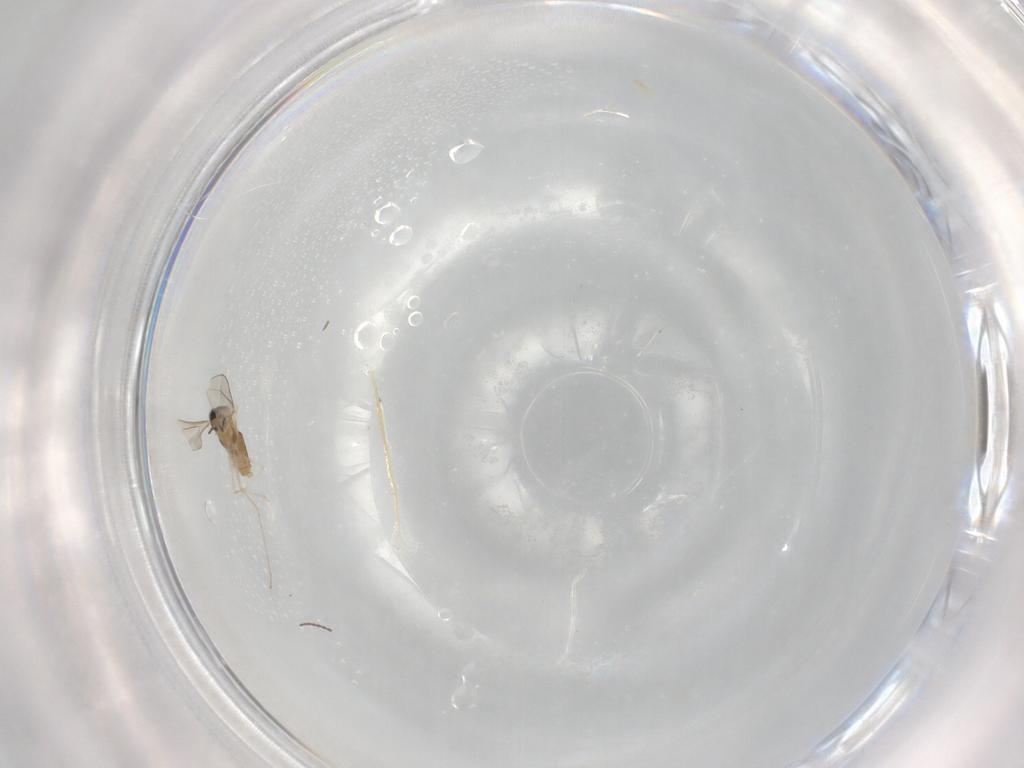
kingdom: Animalia
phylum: Arthropoda
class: Insecta
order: Diptera
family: Cecidomyiidae
